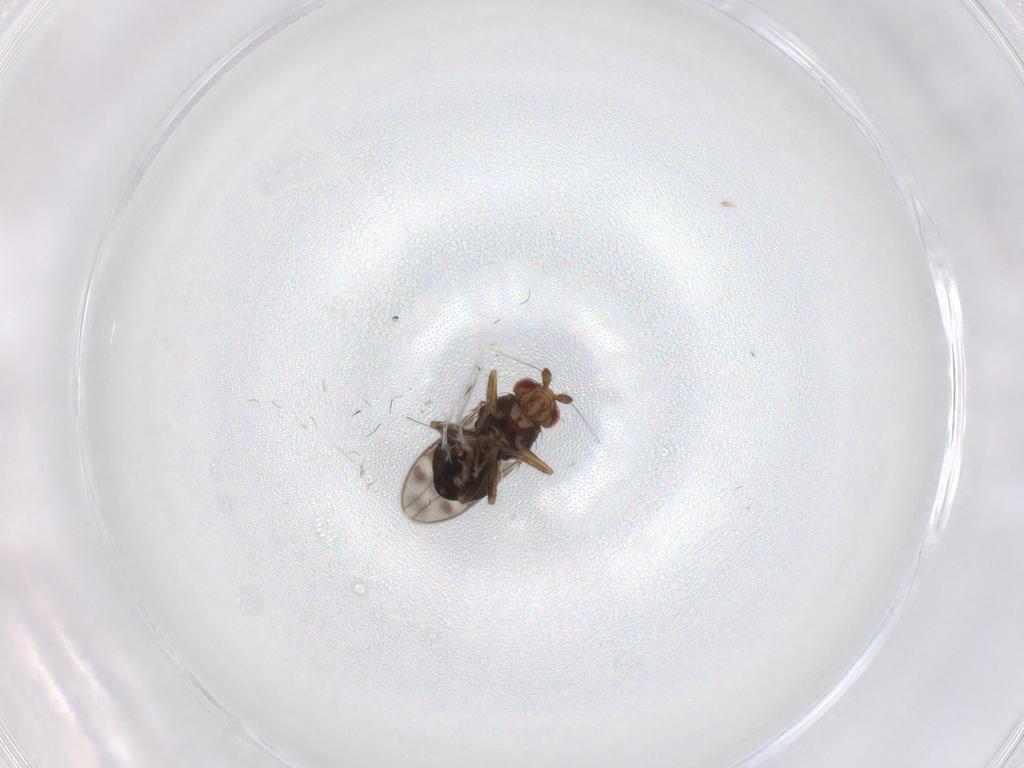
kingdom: Animalia
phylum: Arthropoda
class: Insecta
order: Diptera
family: Sphaeroceridae
